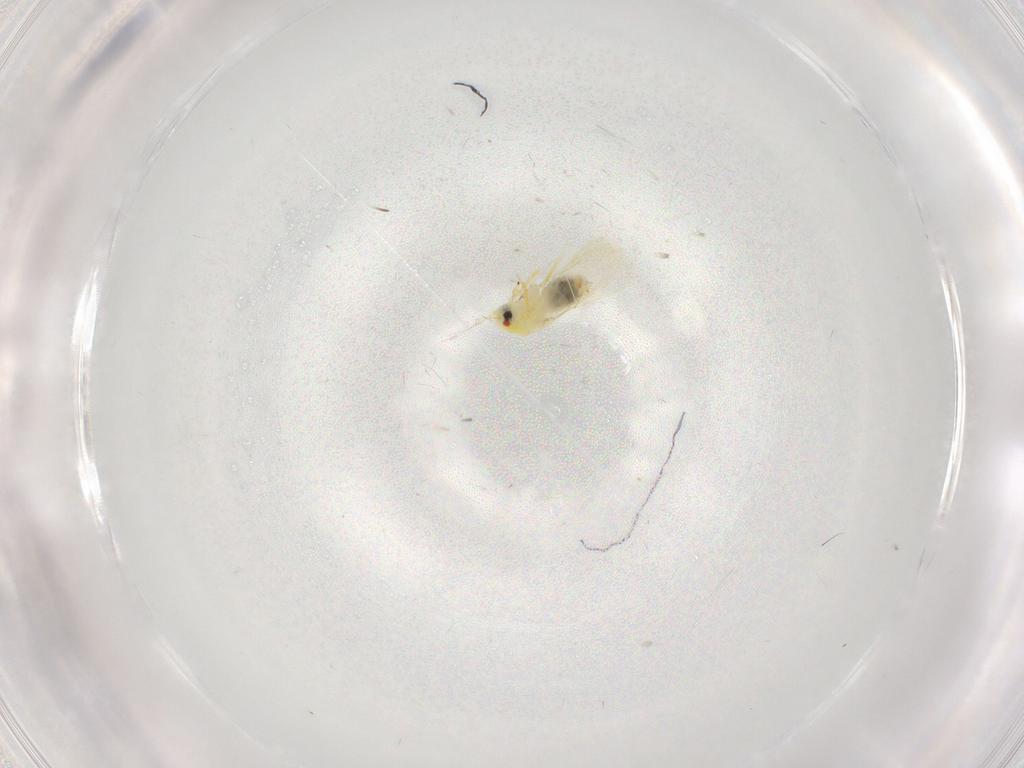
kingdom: Animalia
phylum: Arthropoda
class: Insecta
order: Hemiptera
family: Aleyrodidae
